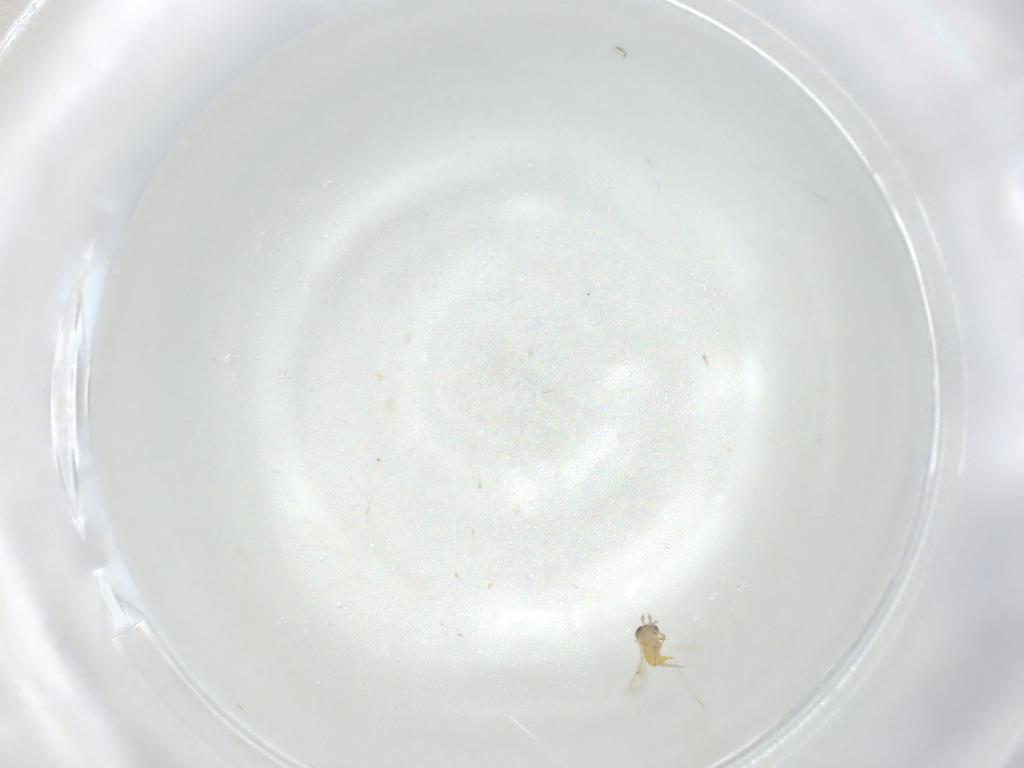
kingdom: Animalia
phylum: Arthropoda
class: Insecta
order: Hymenoptera
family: Trichogrammatidae
